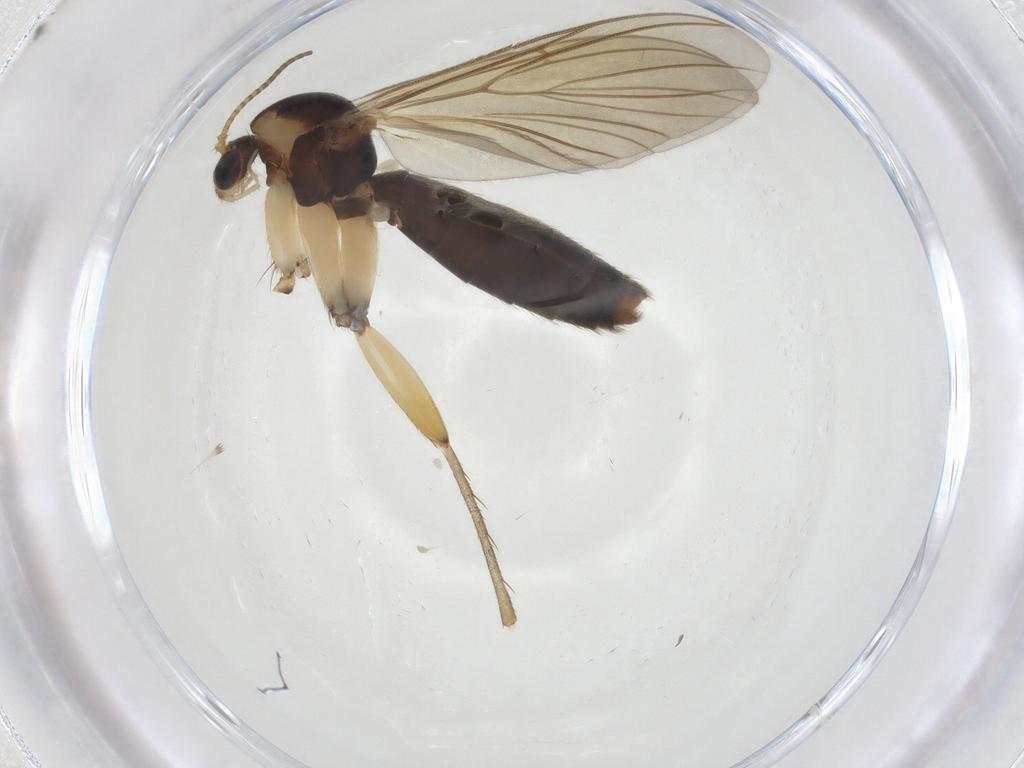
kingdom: Animalia
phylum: Arthropoda
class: Insecta
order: Diptera
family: Mycetophilidae
